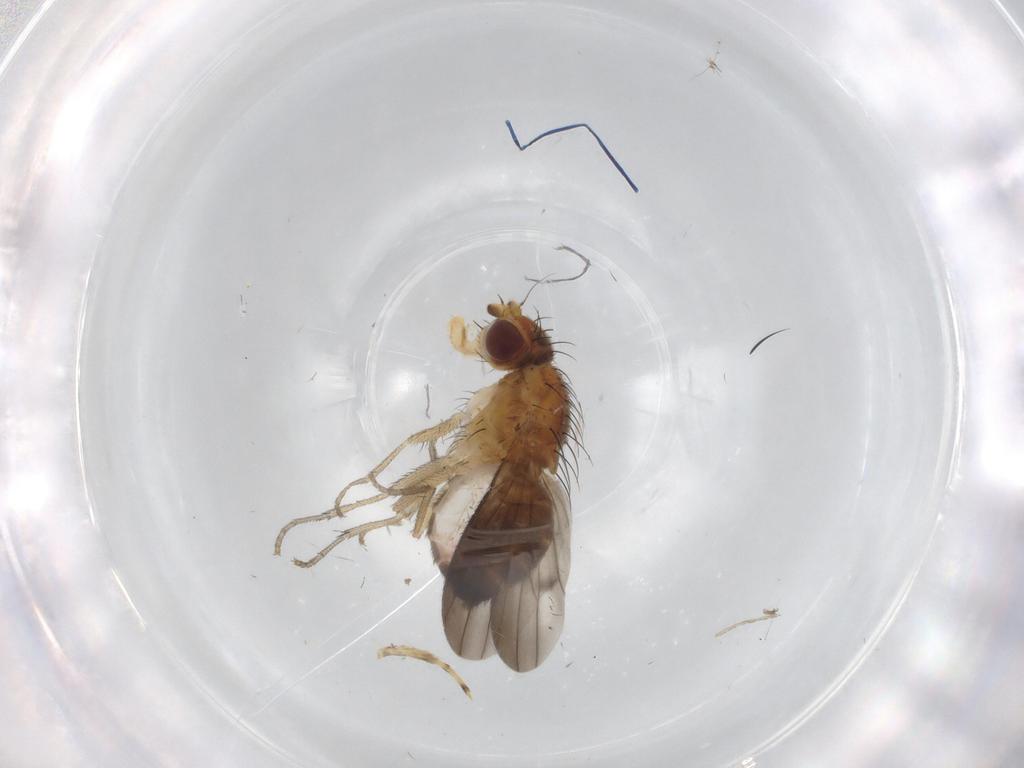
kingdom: Animalia
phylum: Arthropoda
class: Insecta
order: Diptera
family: Heleomyzidae
